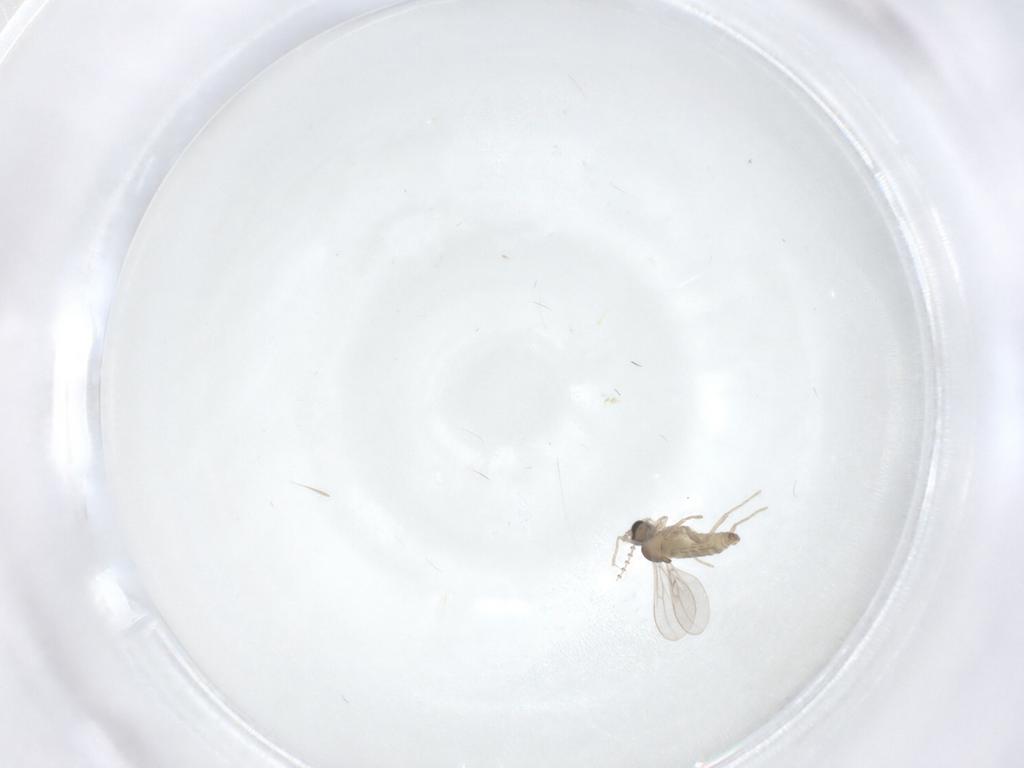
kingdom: Animalia
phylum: Arthropoda
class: Insecta
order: Diptera
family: Cecidomyiidae
